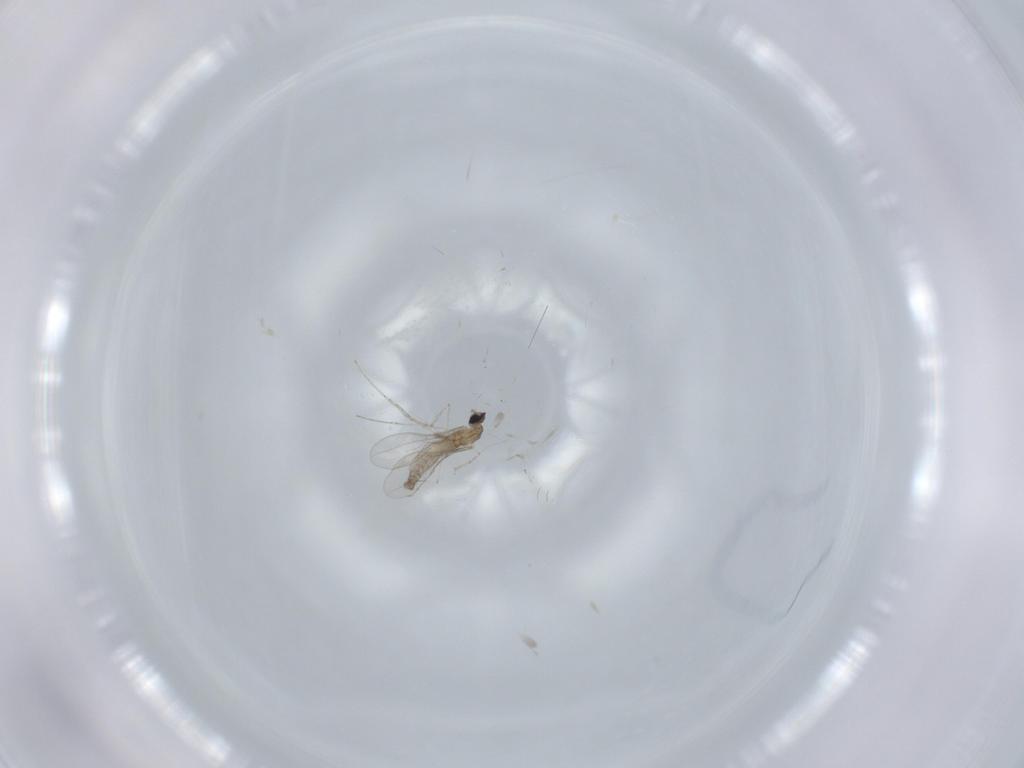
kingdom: Animalia
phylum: Arthropoda
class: Insecta
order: Diptera
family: Cecidomyiidae
